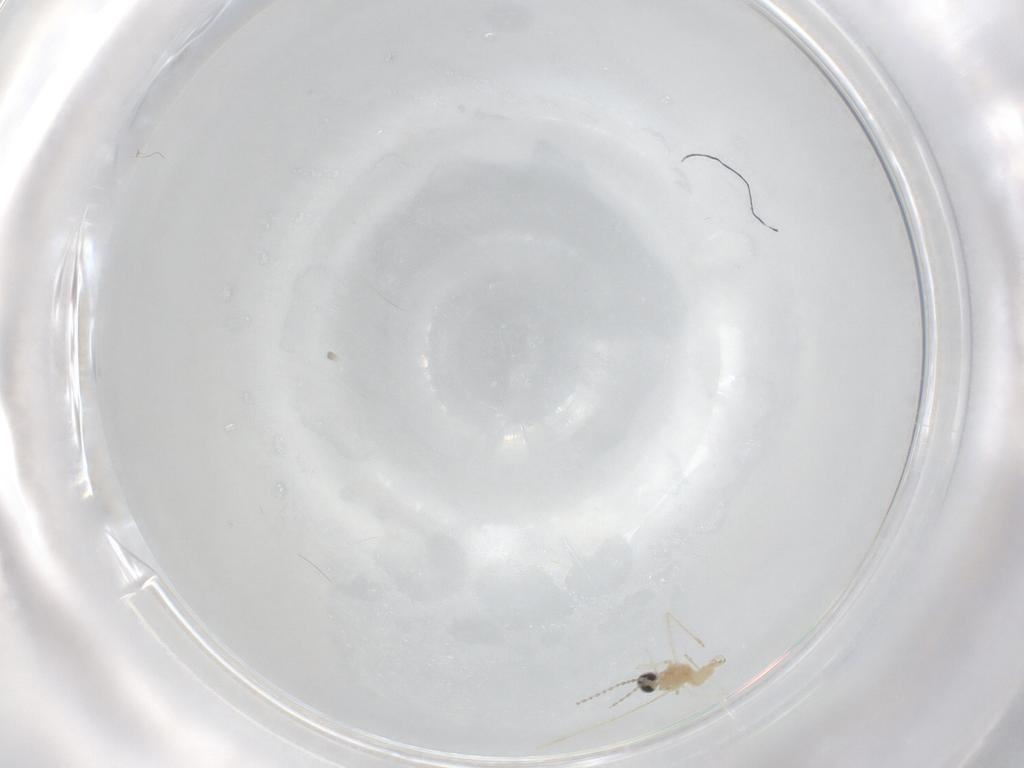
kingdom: Animalia
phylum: Arthropoda
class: Insecta
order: Diptera
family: Cecidomyiidae
